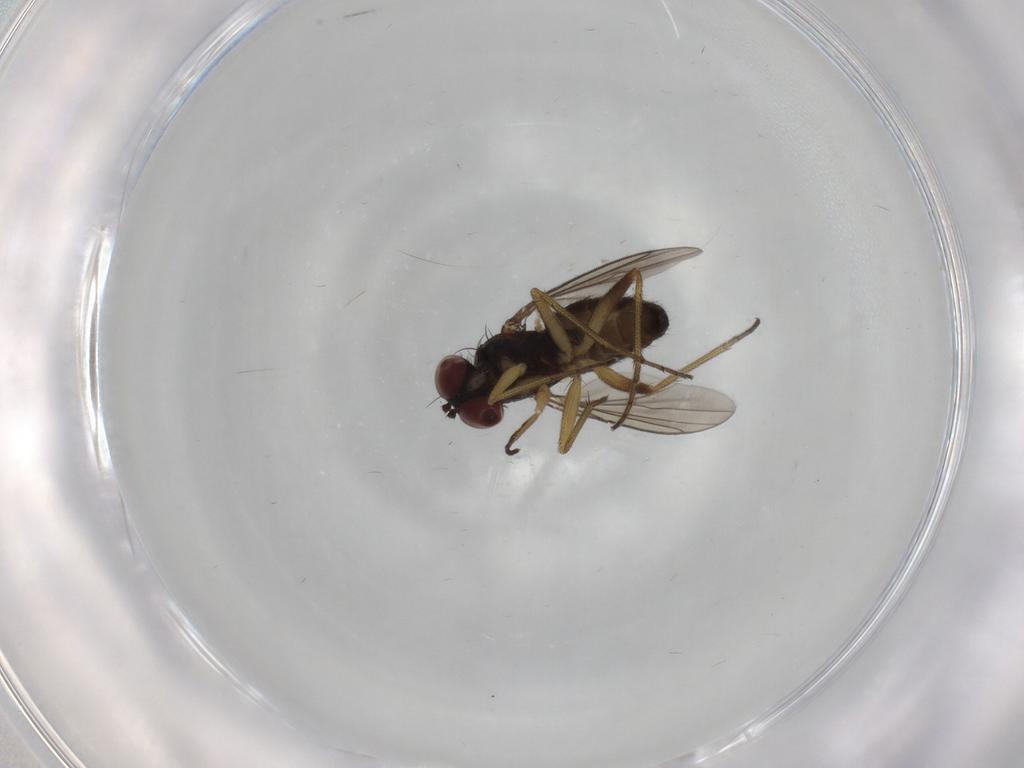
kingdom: Animalia
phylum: Arthropoda
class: Insecta
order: Diptera
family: Dolichopodidae
